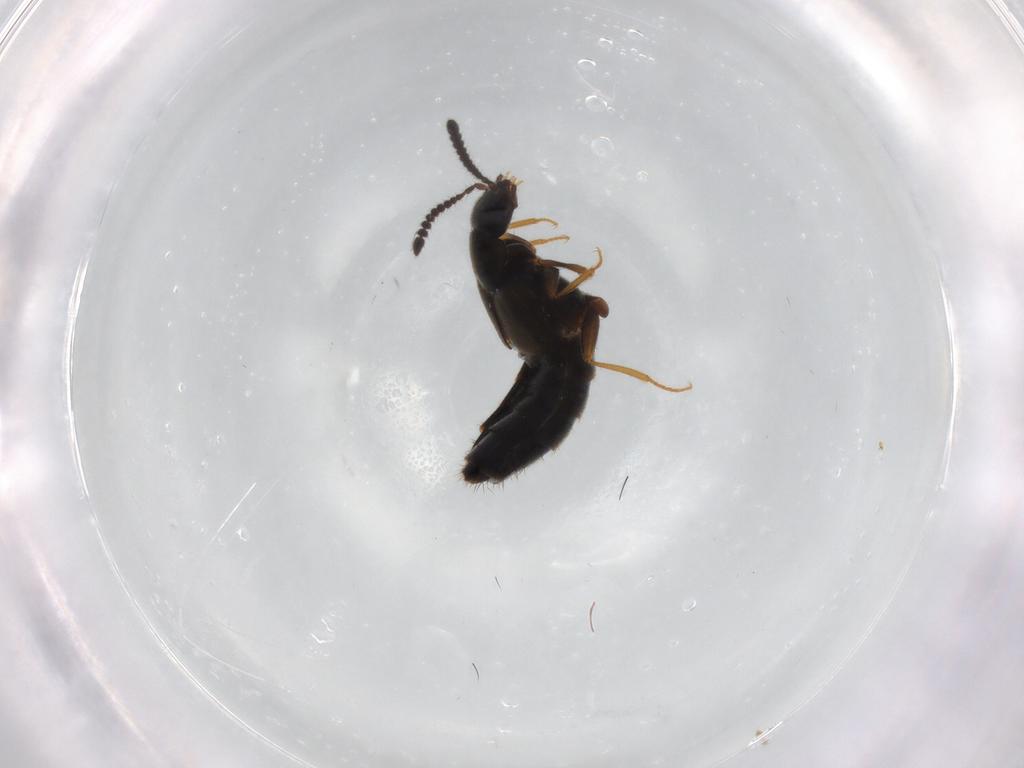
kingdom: Animalia
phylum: Arthropoda
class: Insecta
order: Coleoptera
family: Staphylinidae
